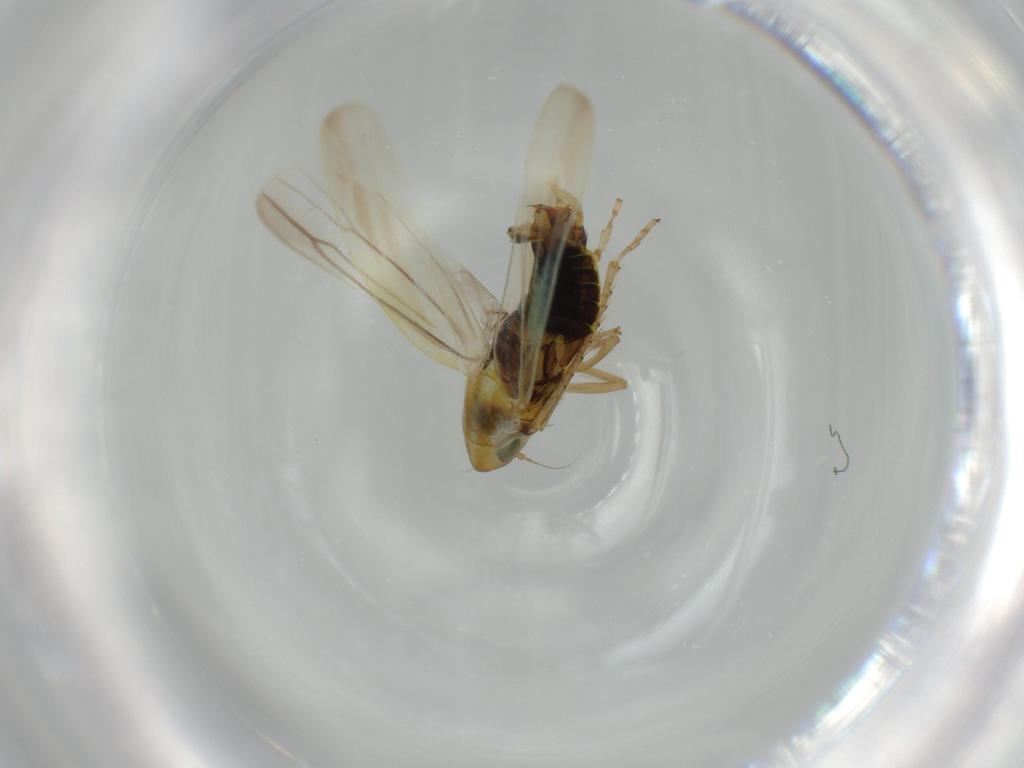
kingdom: Animalia
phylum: Arthropoda
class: Insecta
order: Hemiptera
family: Cicadellidae
